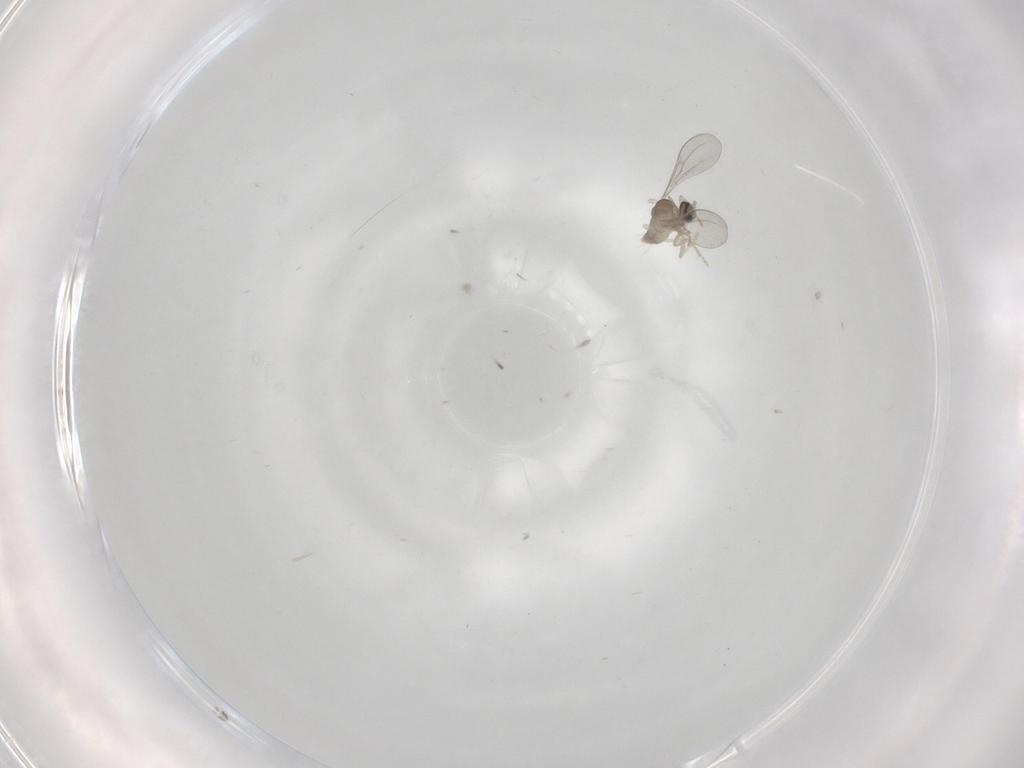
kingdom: Animalia
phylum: Arthropoda
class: Insecta
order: Diptera
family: Cecidomyiidae
